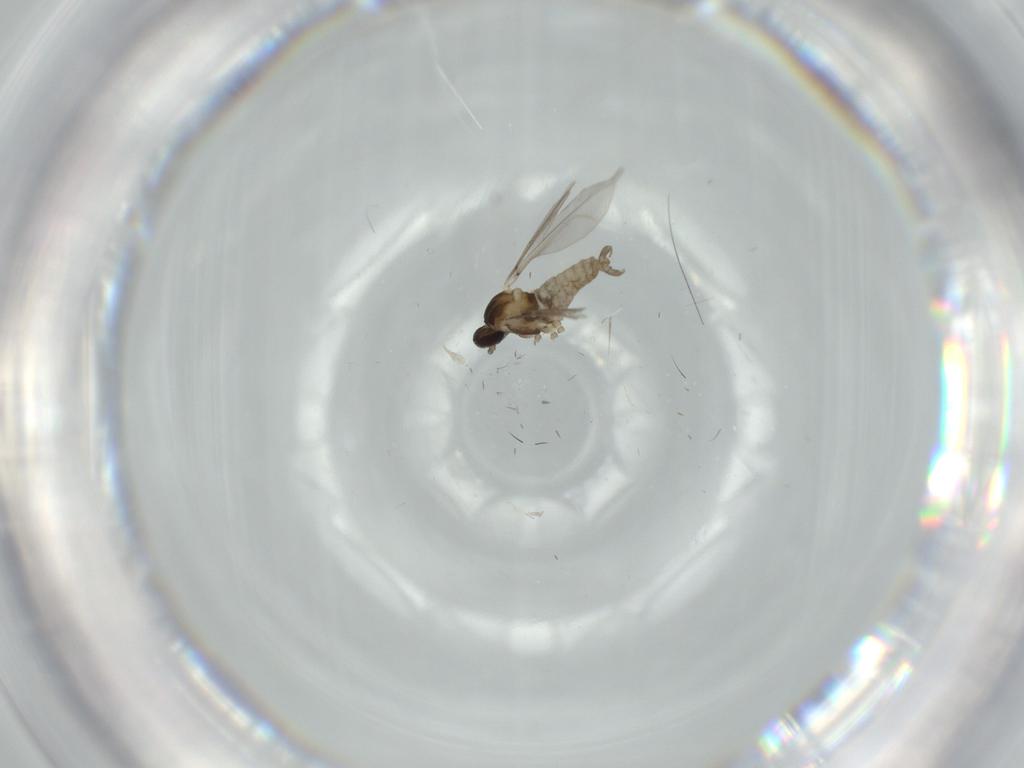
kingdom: Animalia
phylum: Arthropoda
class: Insecta
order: Diptera
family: Cecidomyiidae
